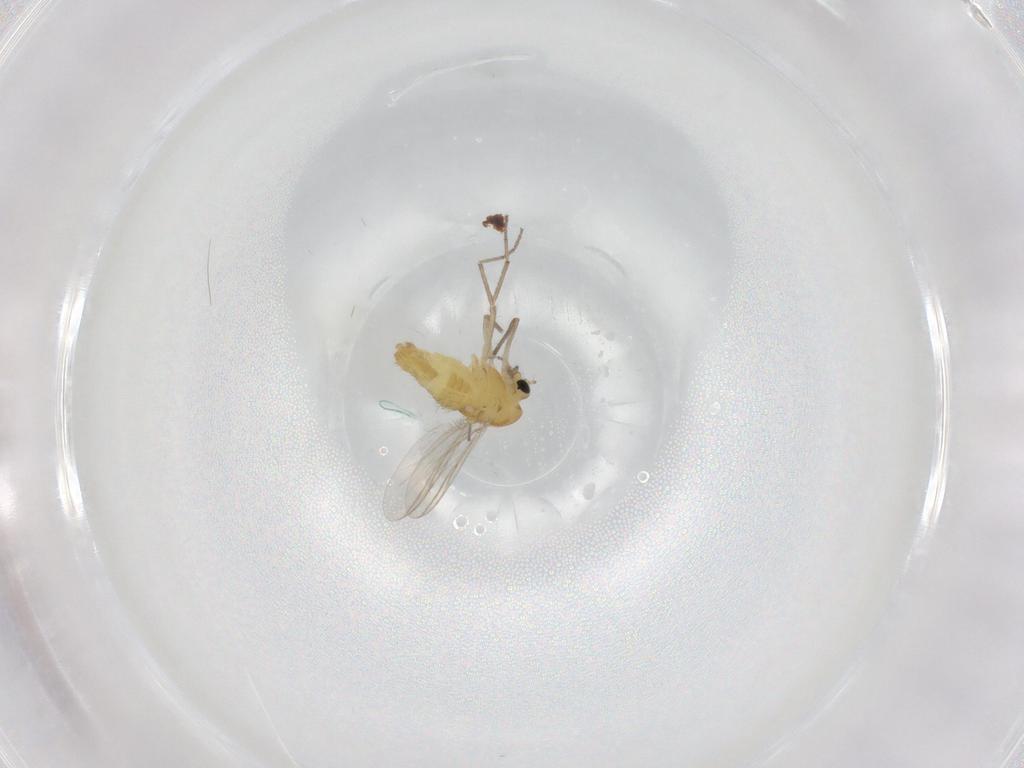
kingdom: Animalia
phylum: Arthropoda
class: Insecta
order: Diptera
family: Chironomidae
